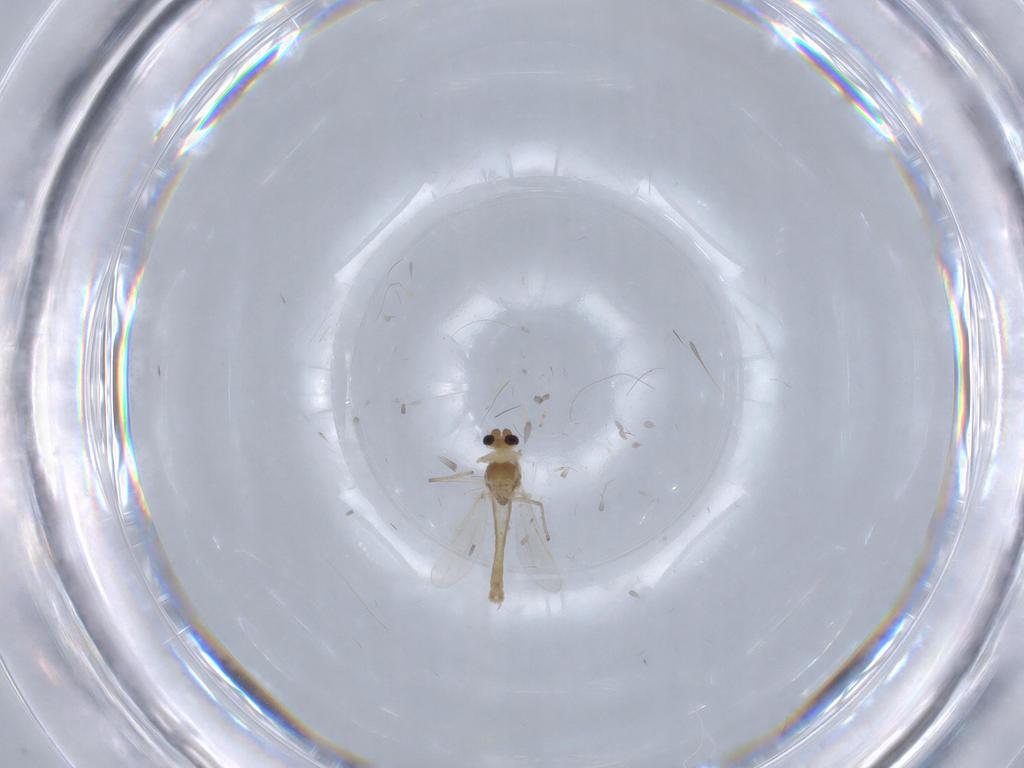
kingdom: Animalia
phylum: Arthropoda
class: Insecta
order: Diptera
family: Chironomidae
